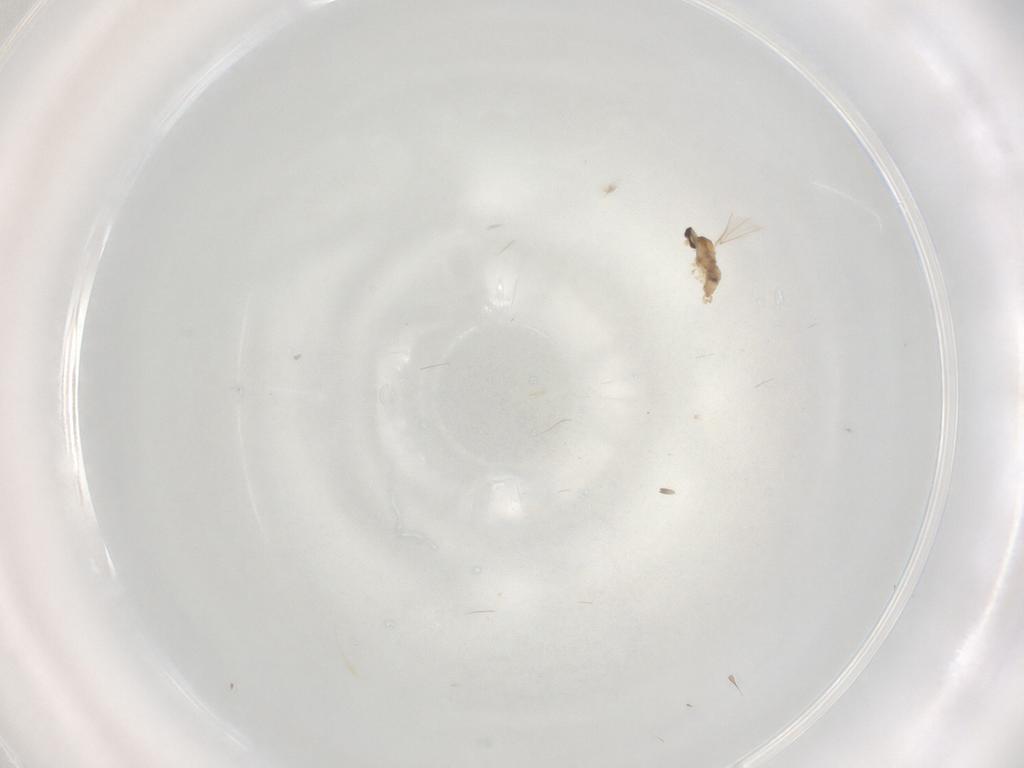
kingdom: Animalia
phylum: Arthropoda
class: Insecta
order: Diptera
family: Cecidomyiidae
